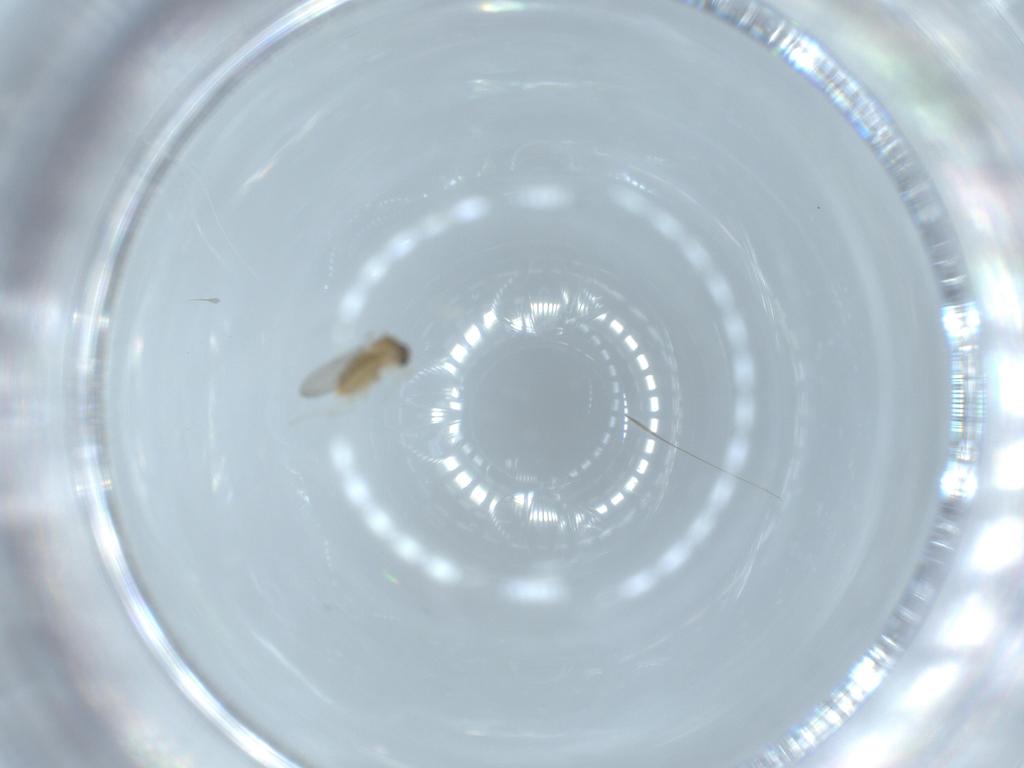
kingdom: Animalia
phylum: Arthropoda
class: Insecta
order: Diptera
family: Cecidomyiidae
